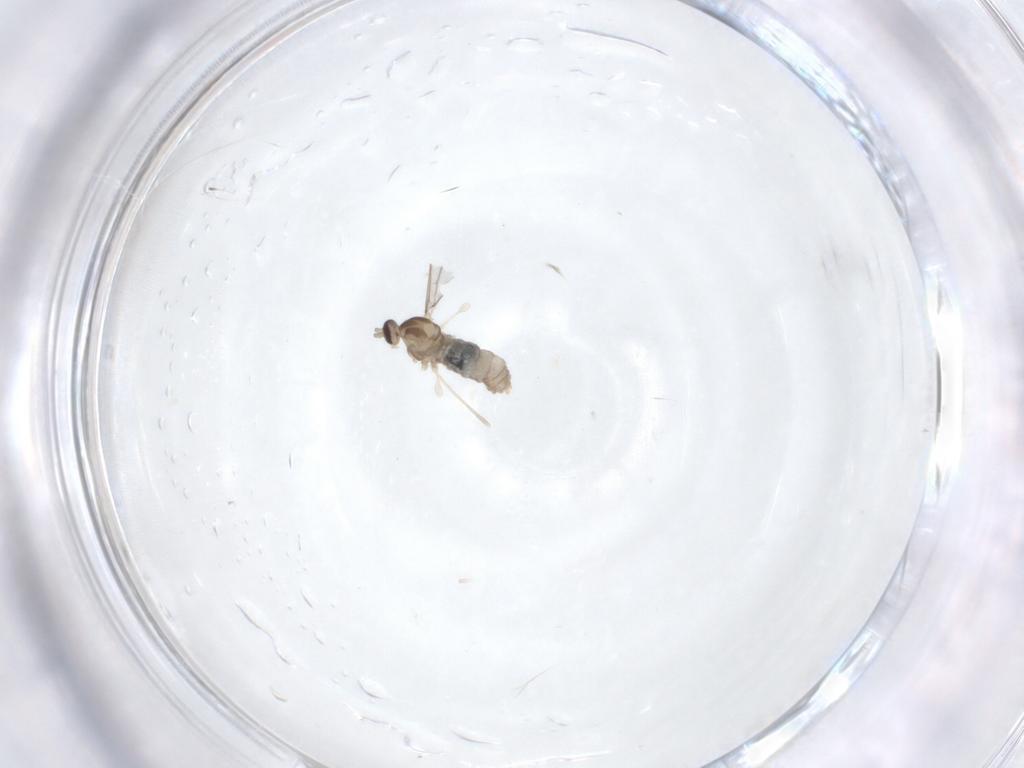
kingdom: Animalia
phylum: Arthropoda
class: Insecta
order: Diptera
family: Cecidomyiidae
